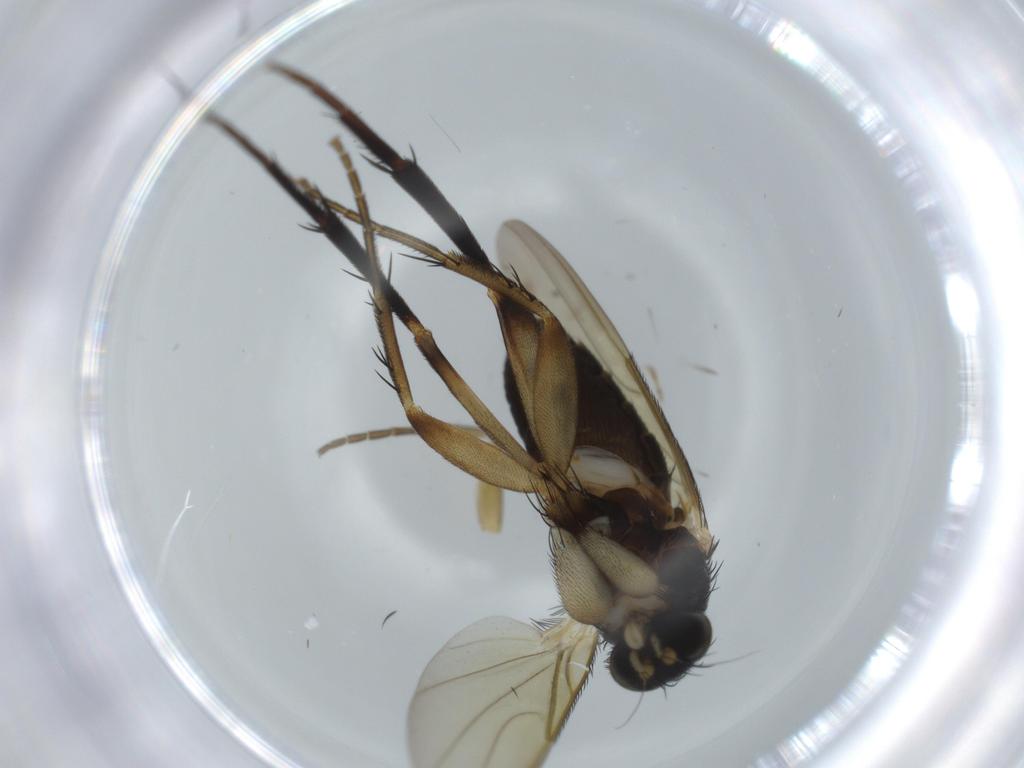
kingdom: Animalia
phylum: Arthropoda
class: Insecta
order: Diptera
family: Phoridae
